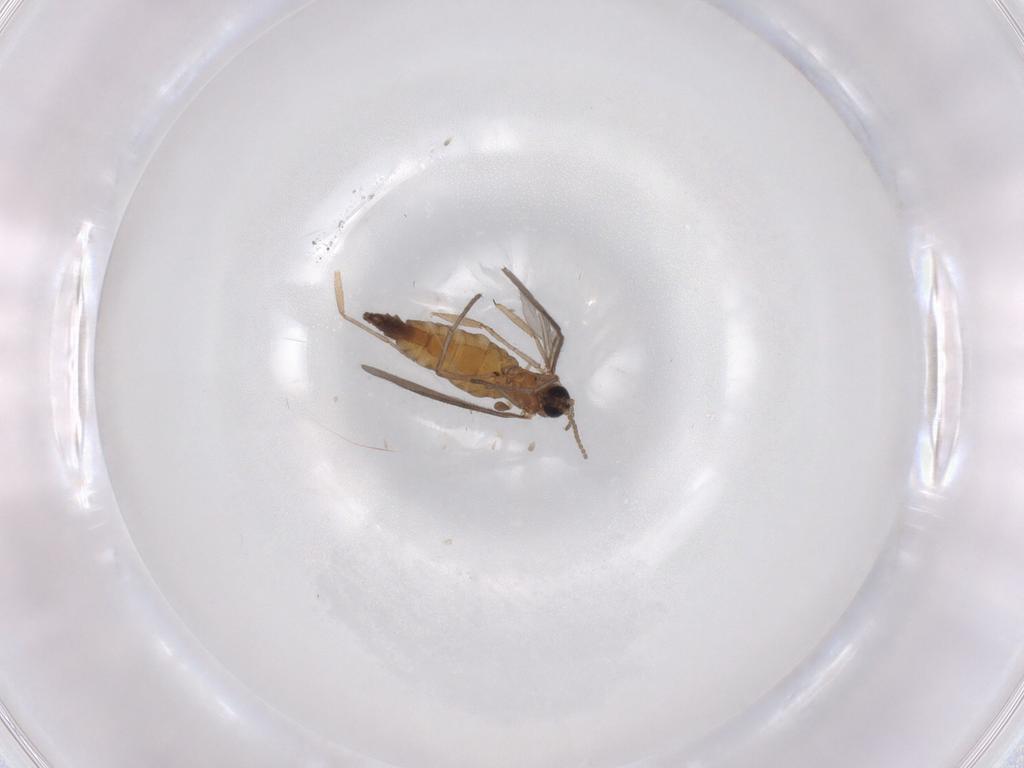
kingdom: Animalia
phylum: Arthropoda
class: Insecta
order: Diptera
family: Sciaridae
